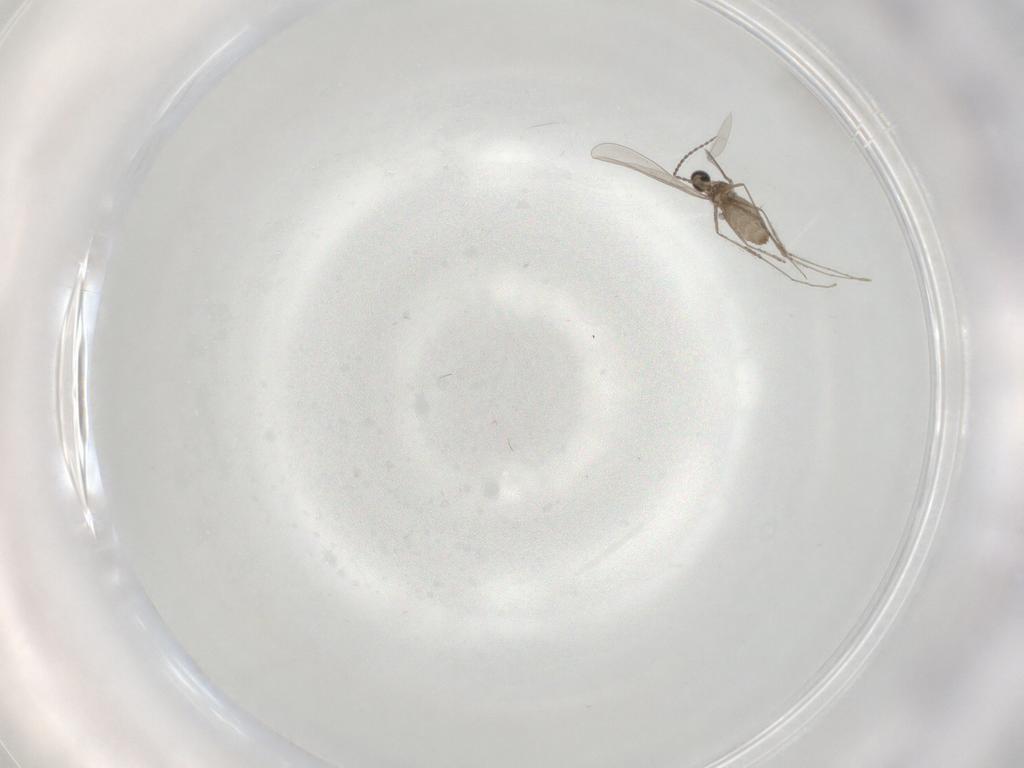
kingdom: Animalia
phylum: Arthropoda
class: Insecta
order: Diptera
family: Cecidomyiidae
